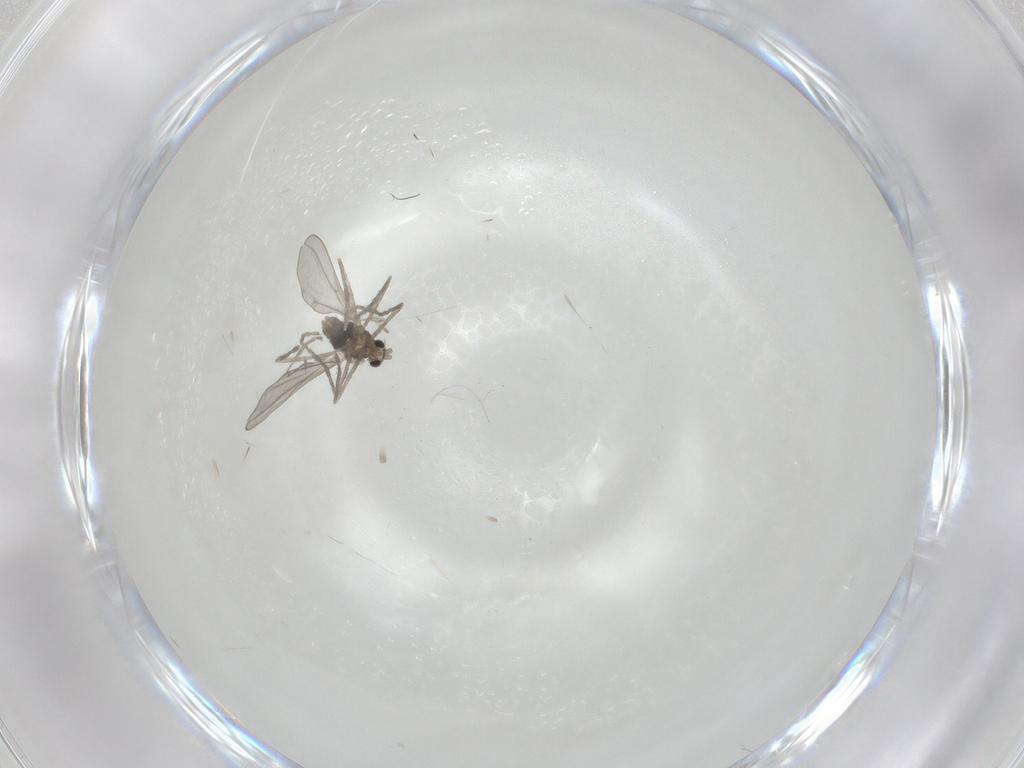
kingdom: Animalia
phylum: Arthropoda
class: Insecta
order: Diptera
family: Cecidomyiidae
